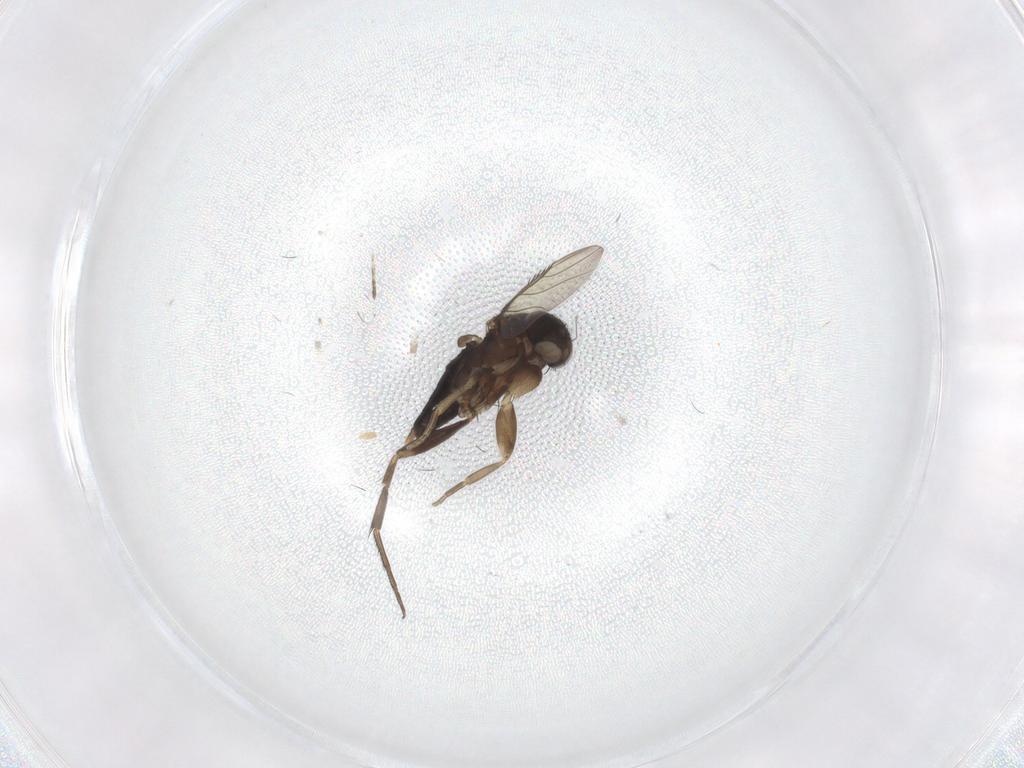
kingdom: Animalia
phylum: Arthropoda
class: Insecta
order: Diptera
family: Phoridae
